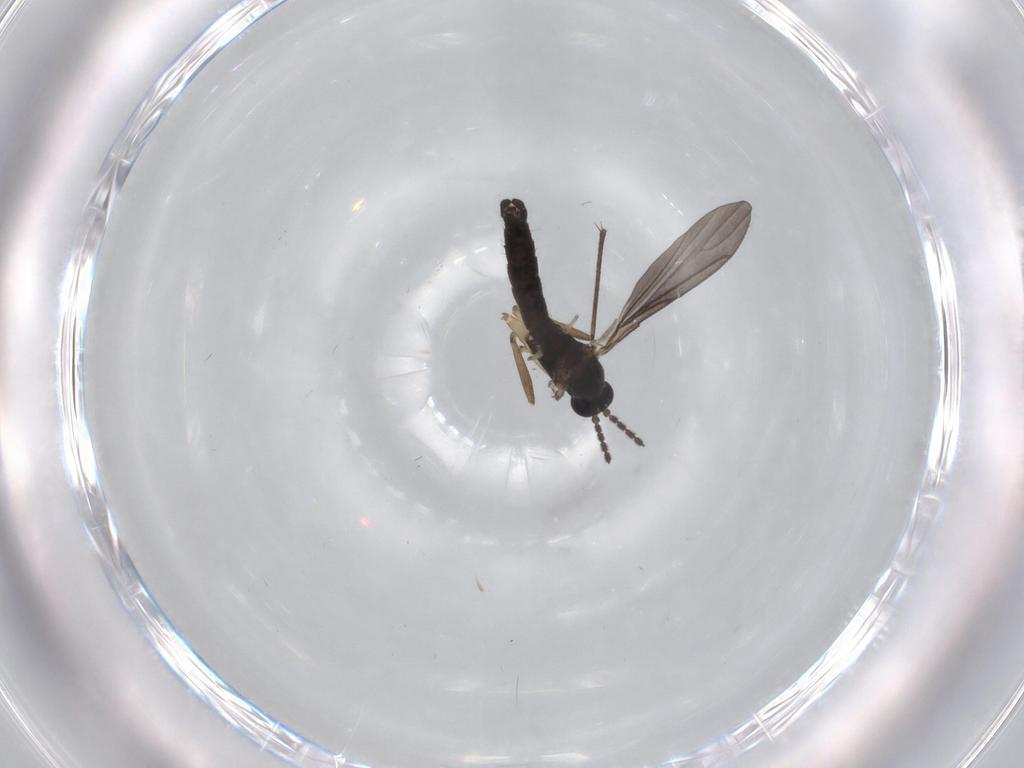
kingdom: Animalia
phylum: Arthropoda
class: Insecta
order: Diptera
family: Sciaridae
